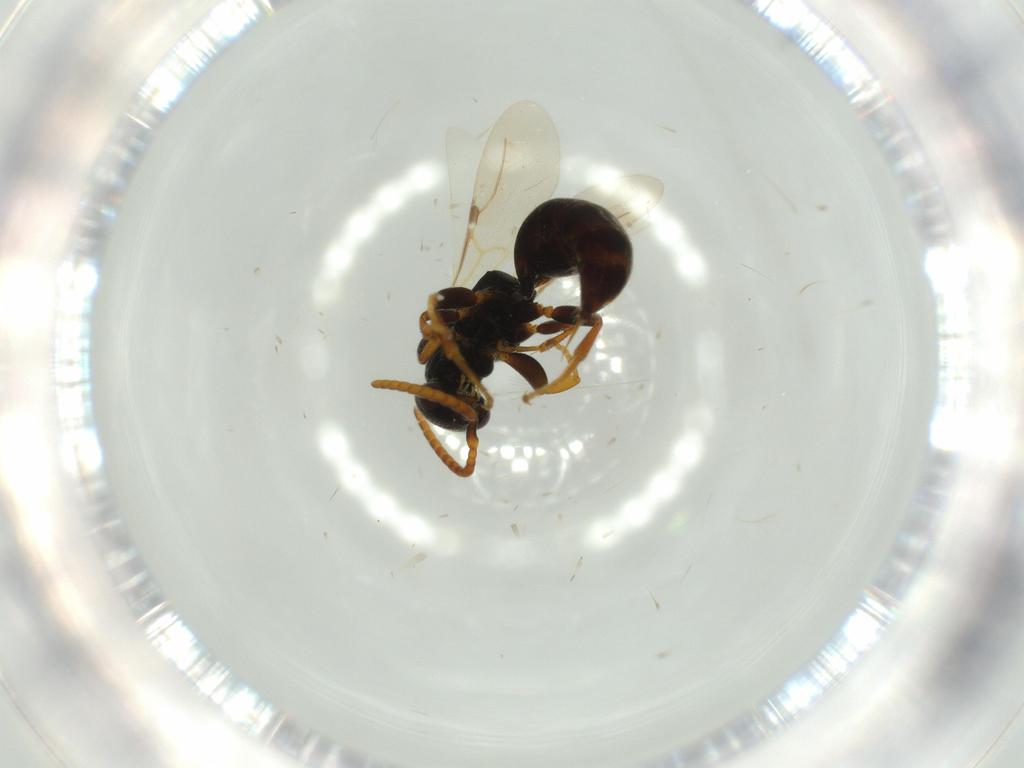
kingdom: Animalia
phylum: Arthropoda
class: Insecta
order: Hymenoptera
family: Bethylidae
